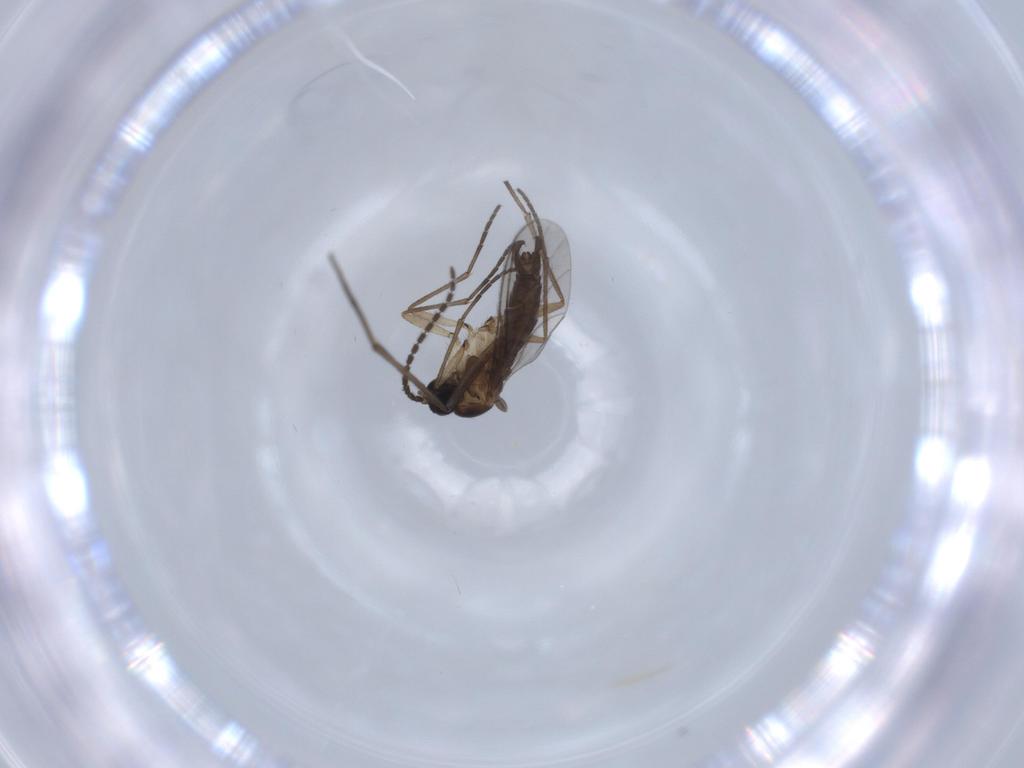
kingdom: Animalia
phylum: Arthropoda
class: Insecta
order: Diptera
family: Sciaridae
